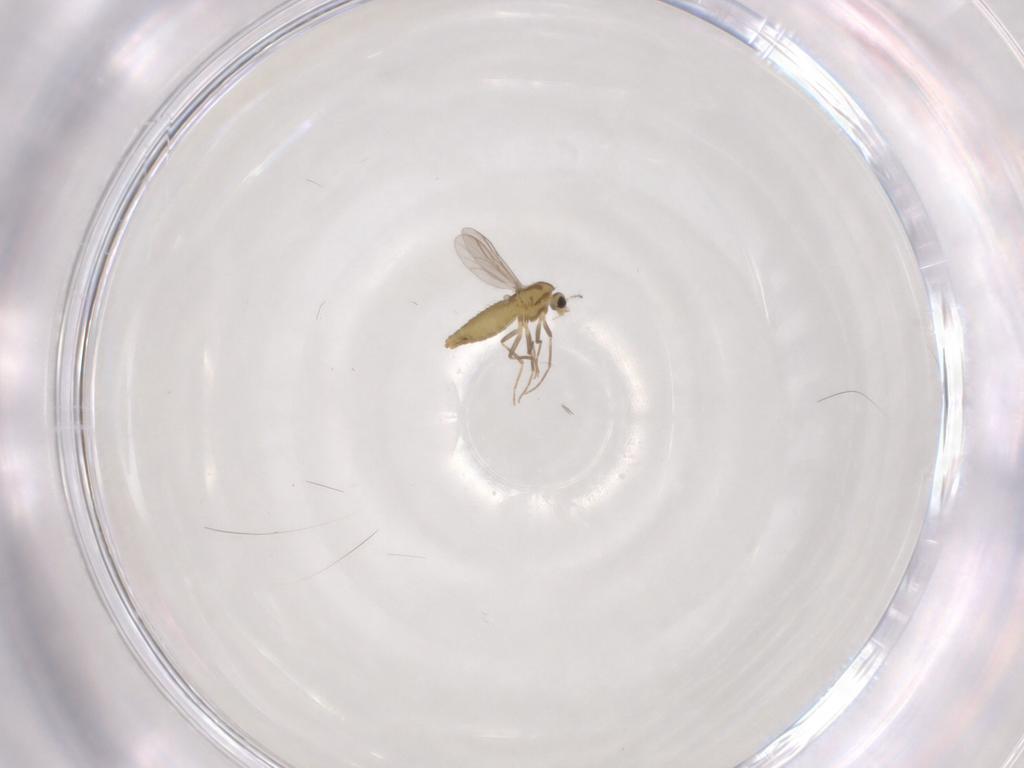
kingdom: Animalia
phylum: Arthropoda
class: Insecta
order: Diptera
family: Chironomidae
